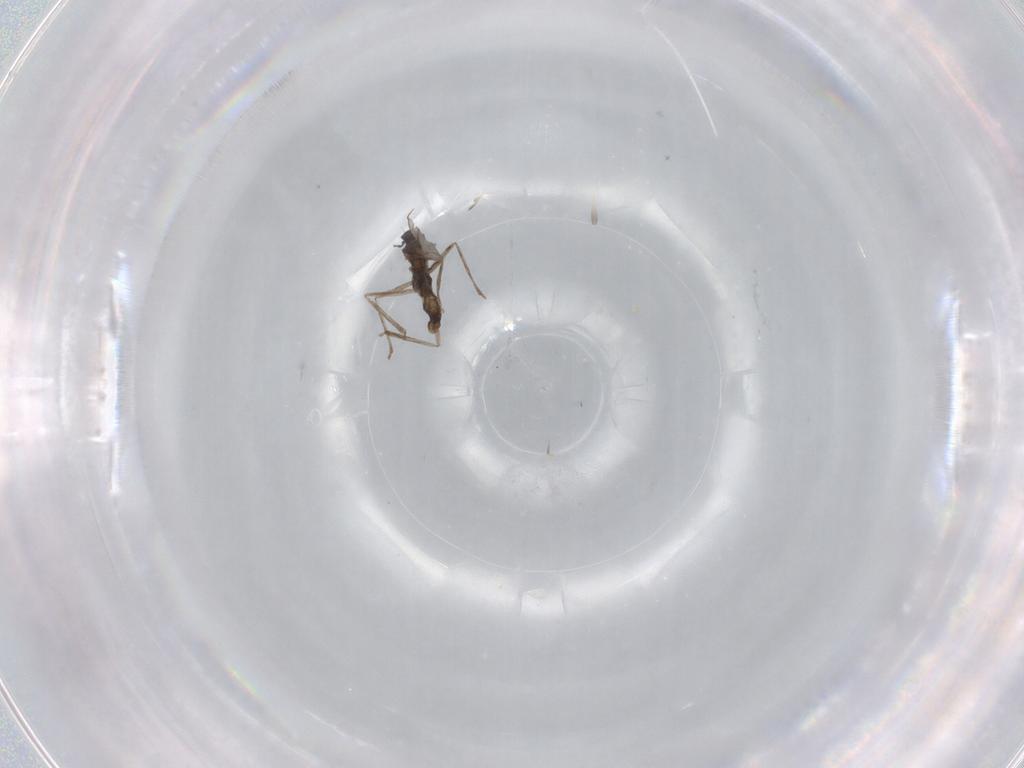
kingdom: Animalia
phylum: Arthropoda
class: Insecta
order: Diptera
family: Cecidomyiidae
